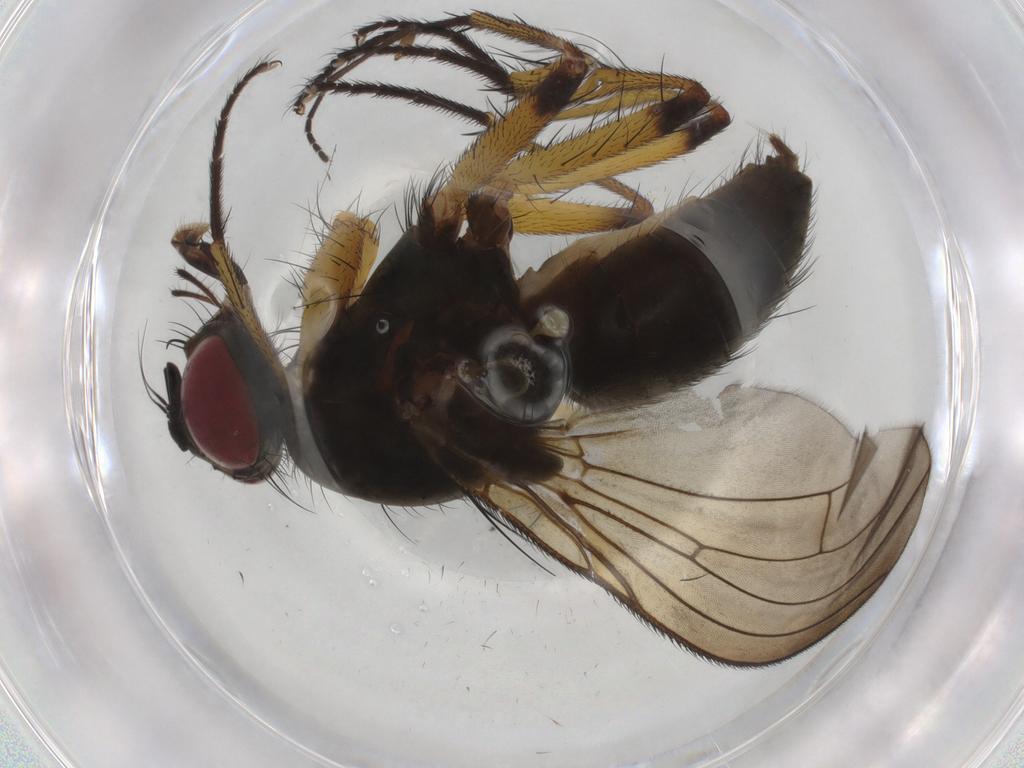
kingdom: Animalia
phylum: Arthropoda
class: Insecta
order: Diptera
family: Muscidae
